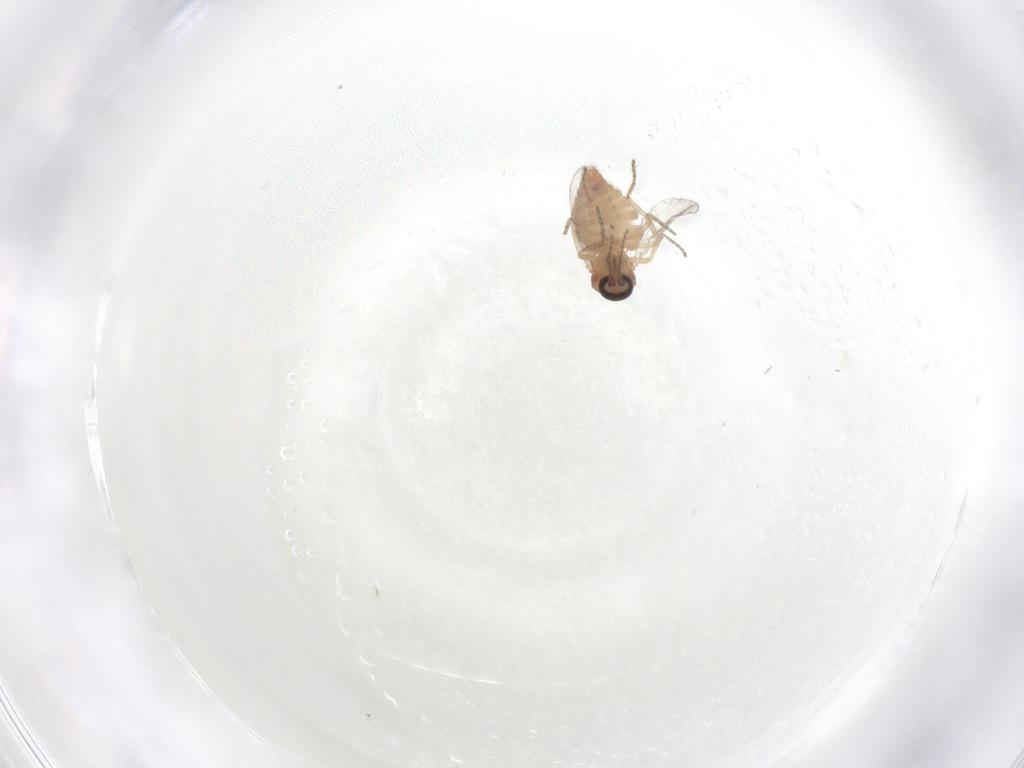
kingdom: Animalia
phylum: Arthropoda
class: Insecta
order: Diptera
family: Ceratopogonidae
